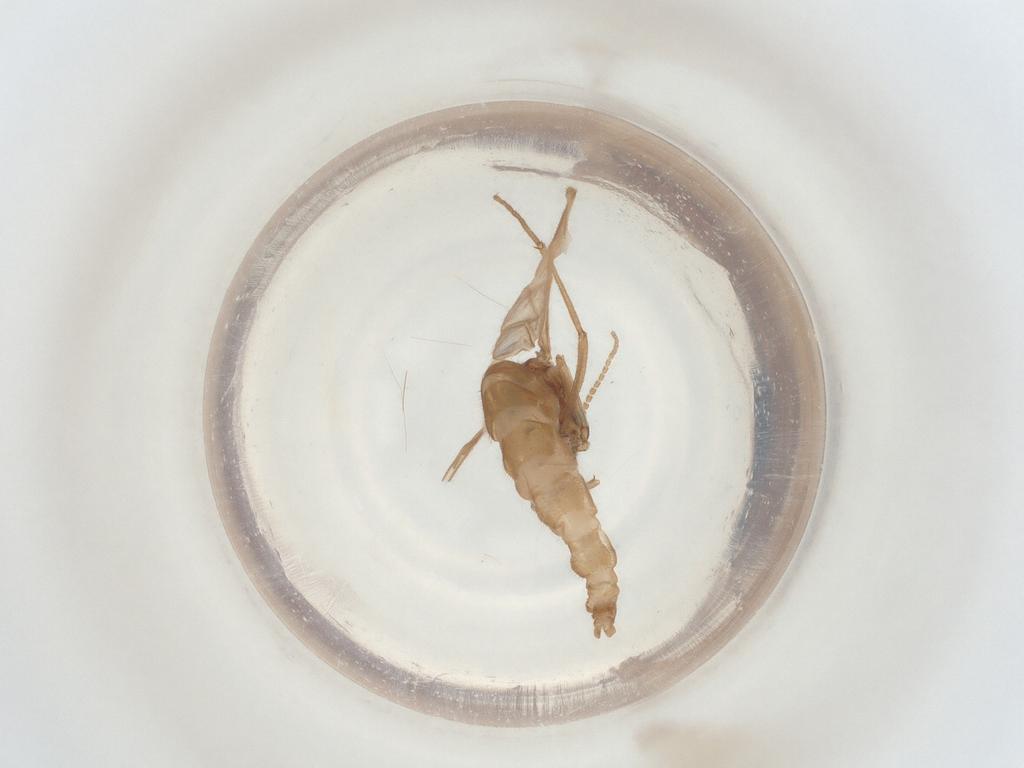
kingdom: Animalia
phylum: Arthropoda
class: Insecta
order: Diptera
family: Sciaridae
